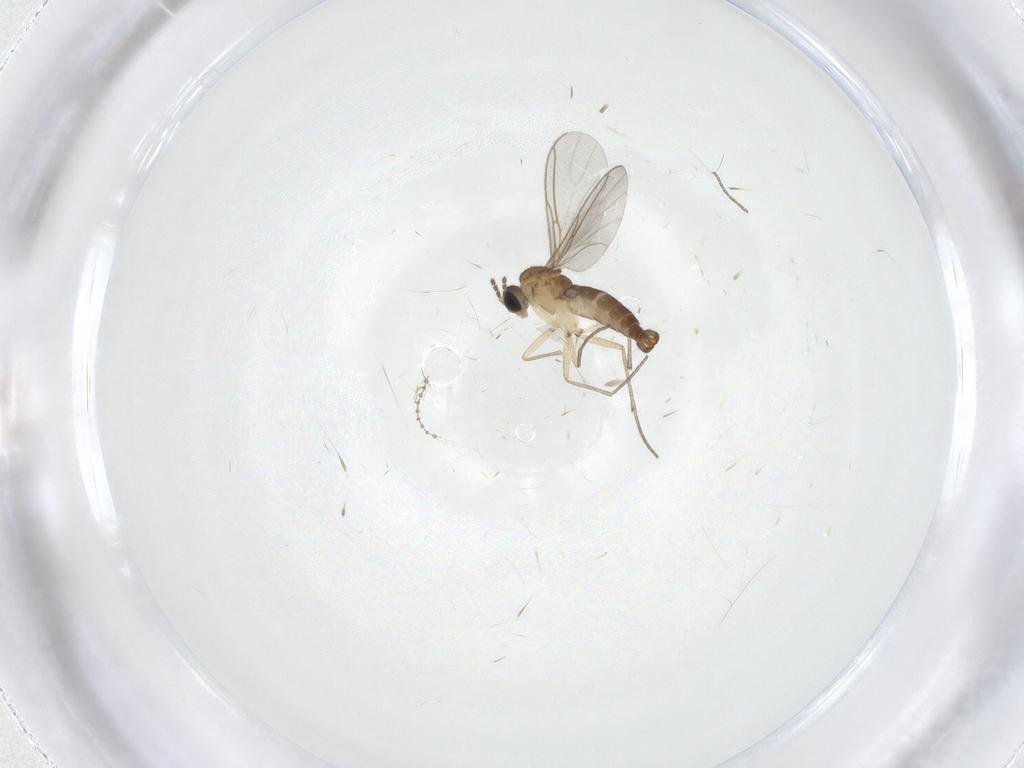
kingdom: Animalia
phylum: Arthropoda
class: Insecta
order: Diptera
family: Sciaridae
